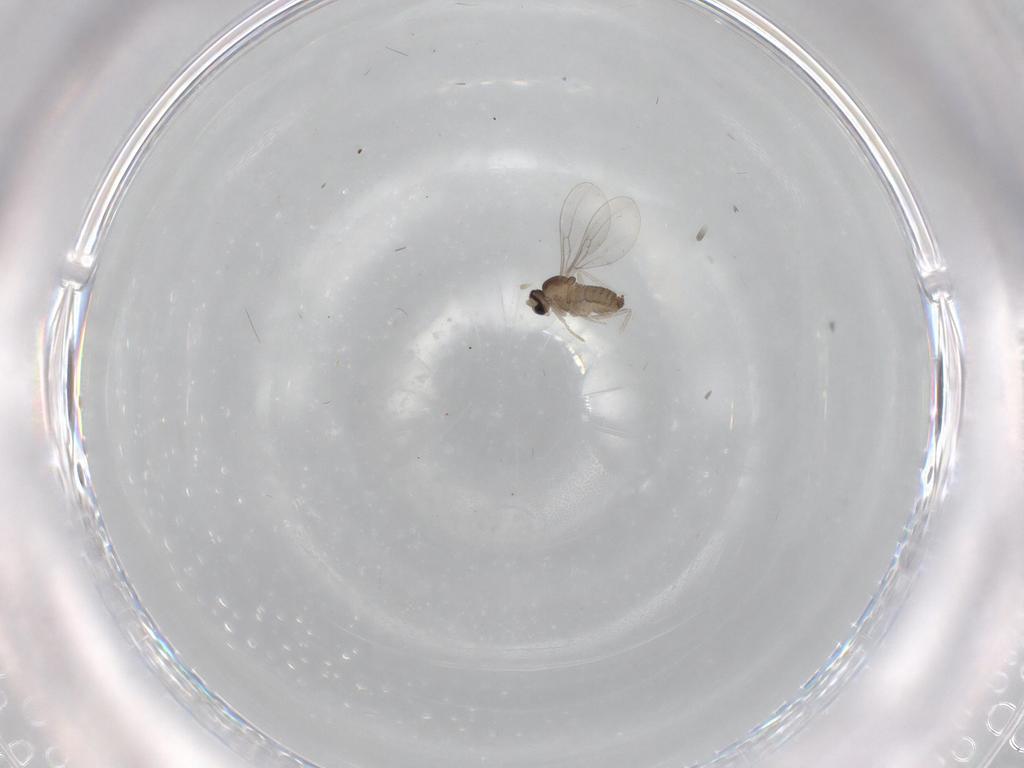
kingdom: Animalia
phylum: Arthropoda
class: Insecta
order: Diptera
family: Cecidomyiidae
